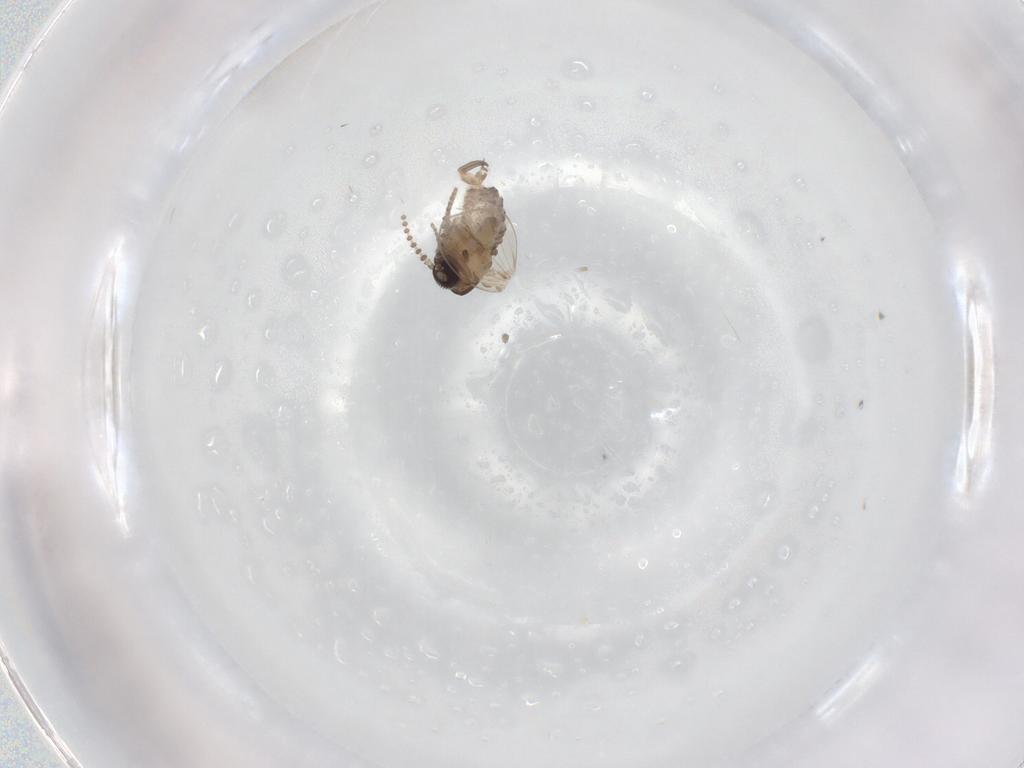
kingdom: Animalia
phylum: Arthropoda
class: Insecta
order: Diptera
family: Psychodidae
